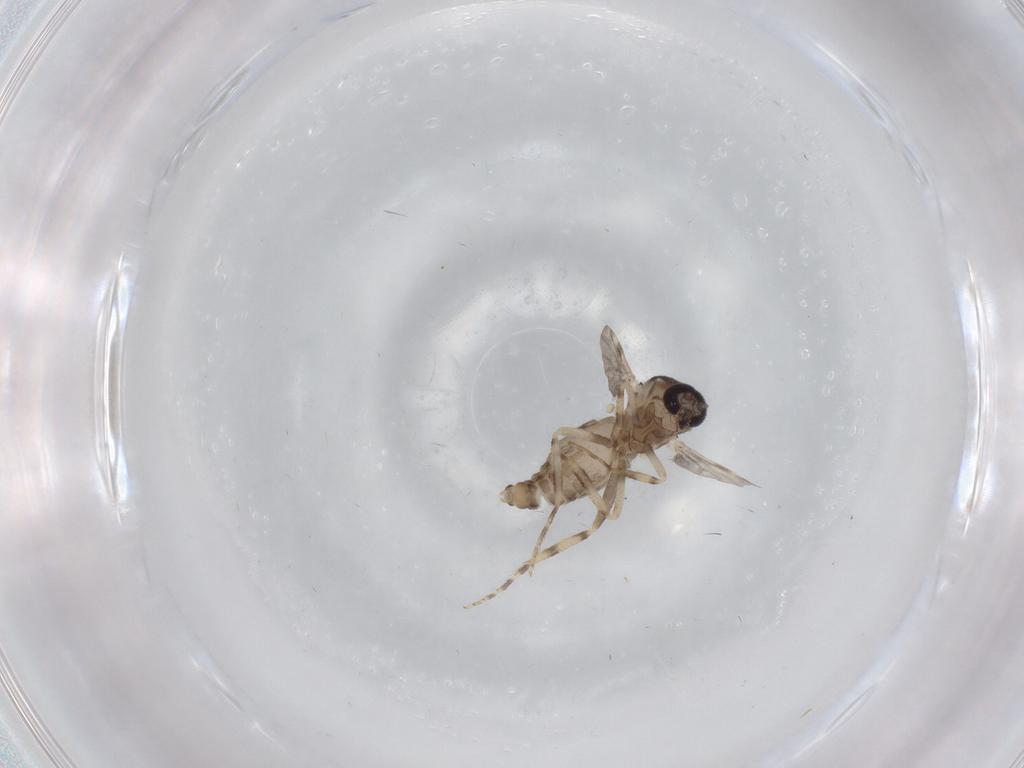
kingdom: Animalia
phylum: Arthropoda
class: Insecta
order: Diptera
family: Ceratopogonidae
